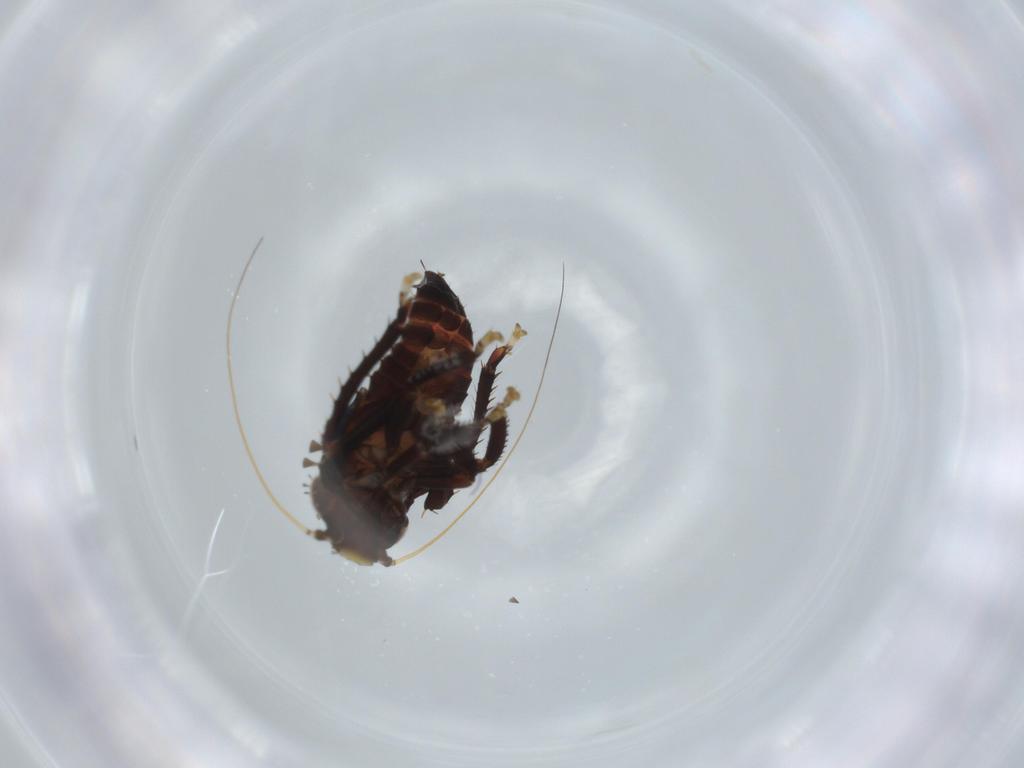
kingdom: Animalia
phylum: Arthropoda
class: Insecta
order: Hemiptera
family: Cicadellidae
